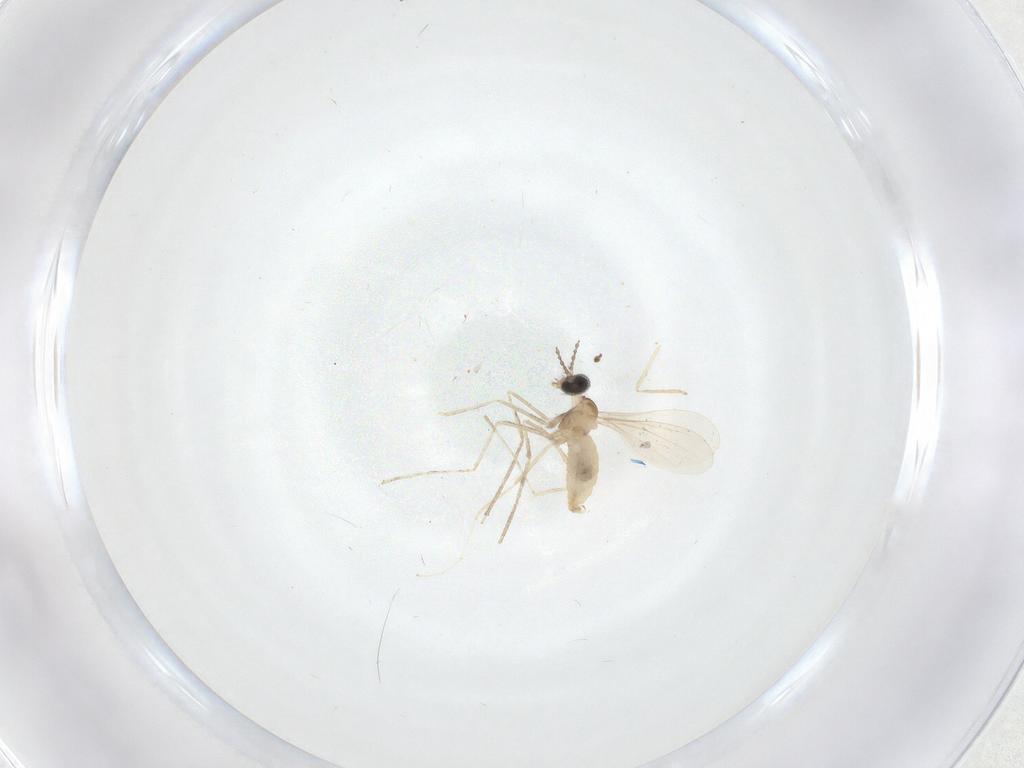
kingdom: Animalia
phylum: Arthropoda
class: Insecta
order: Diptera
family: Cecidomyiidae
